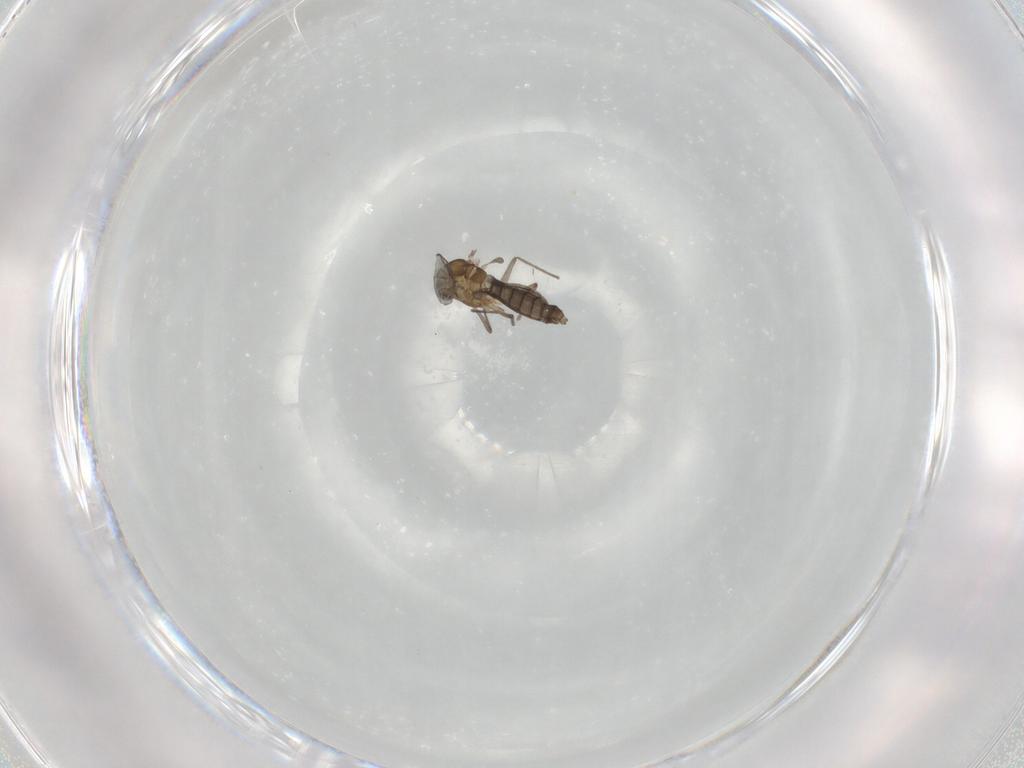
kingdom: Animalia
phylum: Arthropoda
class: Insecta
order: Diptera
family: Chironomidae
